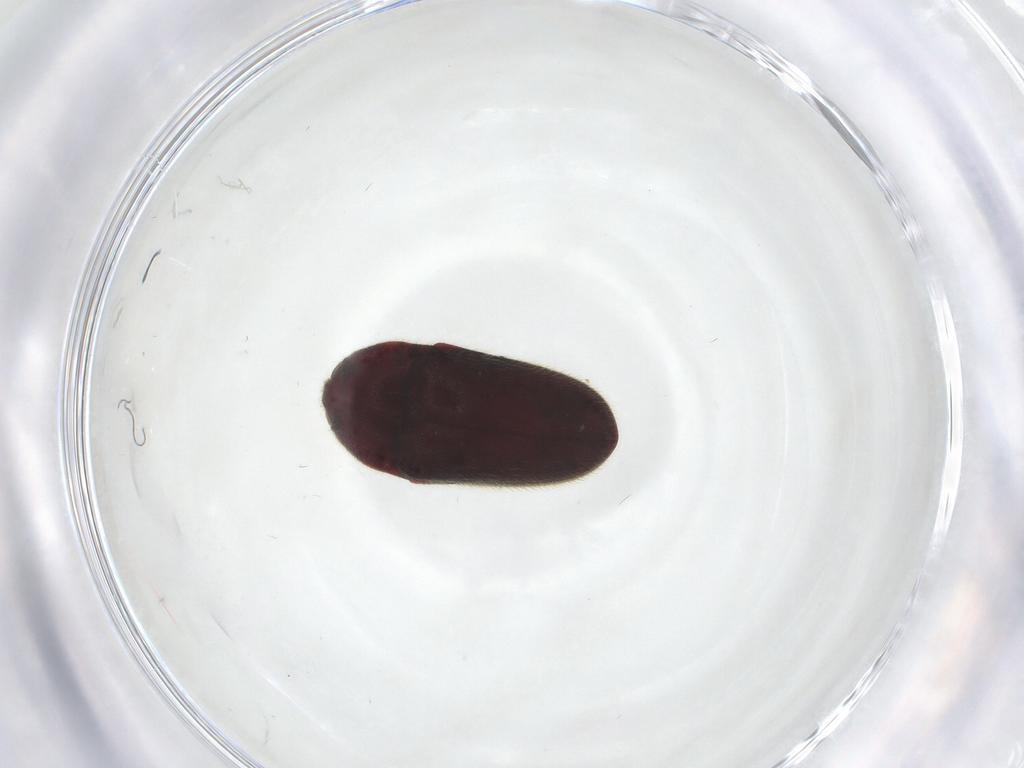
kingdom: Animalia
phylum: Arthropoda
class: Insecta
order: Coleoptera
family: Throscidae
